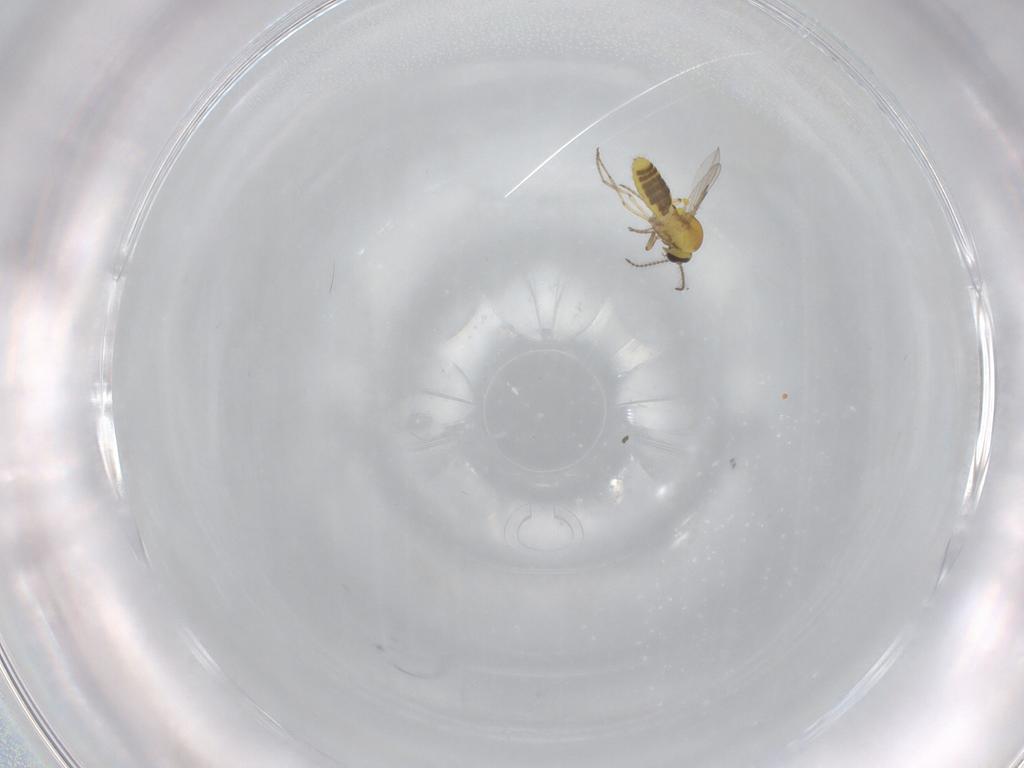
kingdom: Animalia
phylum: Arthropoda
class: Insecta
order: Diptera
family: Ceratopogonidae
